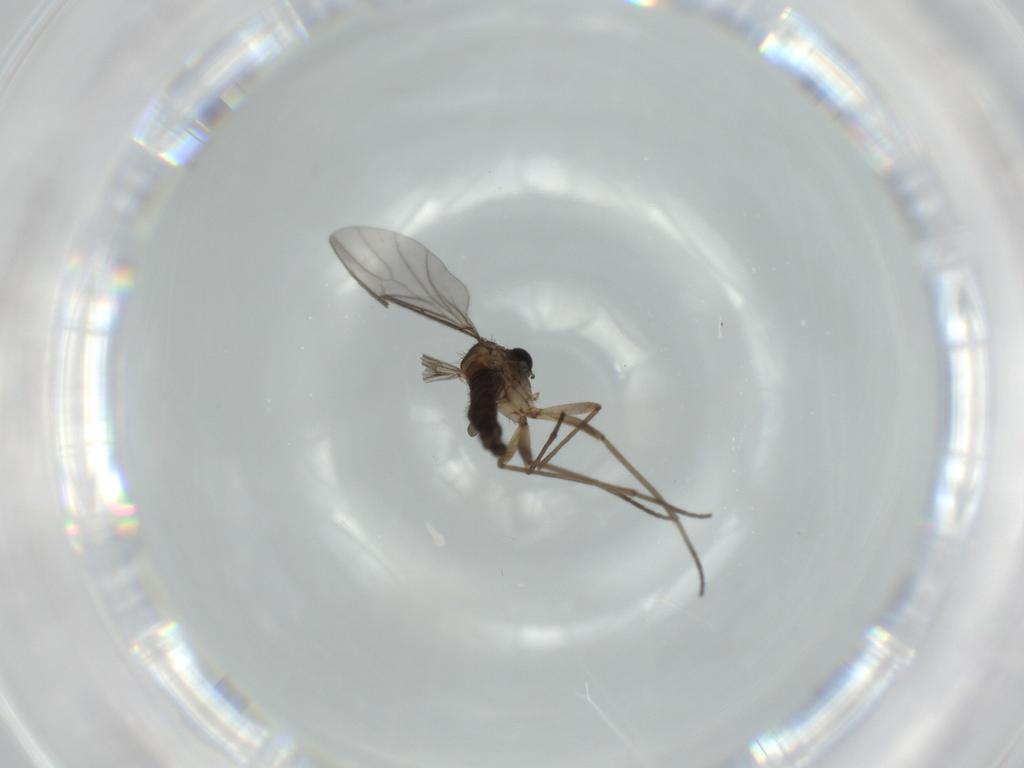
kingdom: Animalia
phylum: Arthropoda
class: Insecta
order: Diptera
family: Sciaridae
